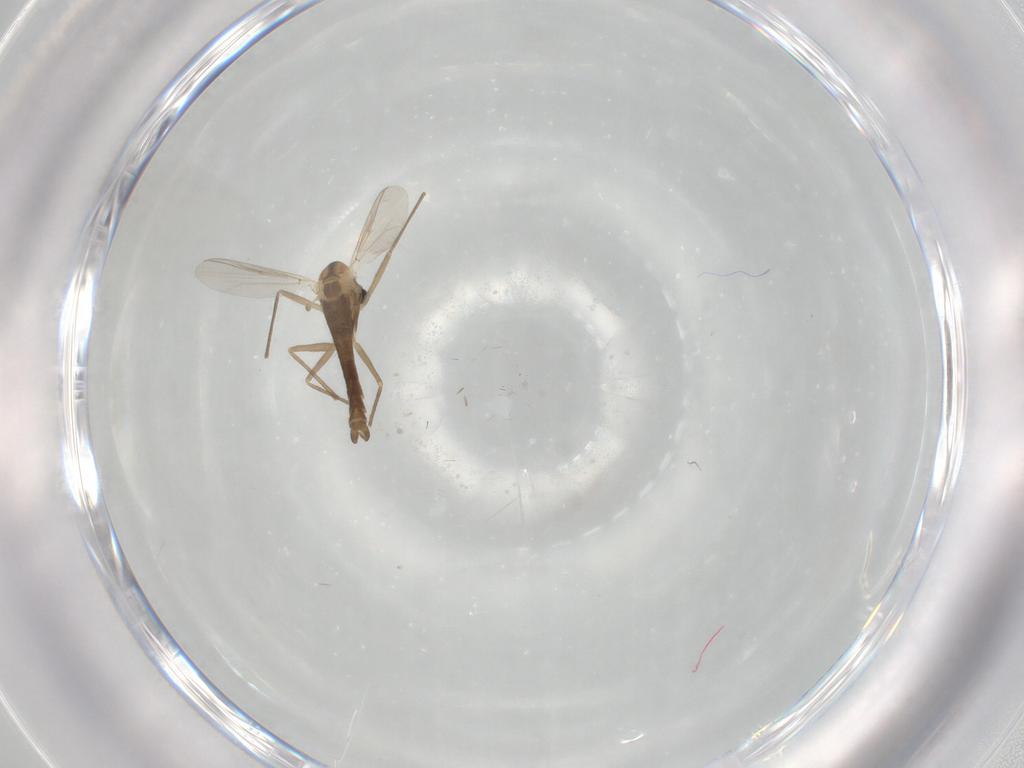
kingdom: Animalia
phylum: Arthropoda
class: Insecta
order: Diptera
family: Chironomidae
